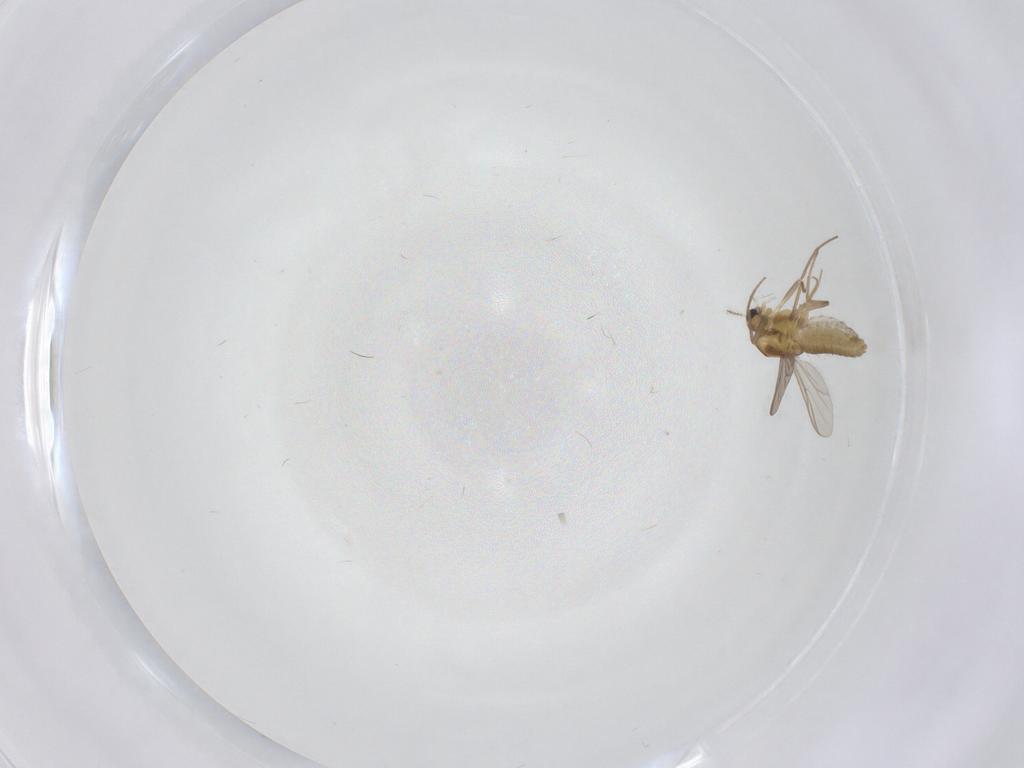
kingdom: Animalia
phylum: Arthropoda
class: Insecta
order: Diptera
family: Chironomidae
